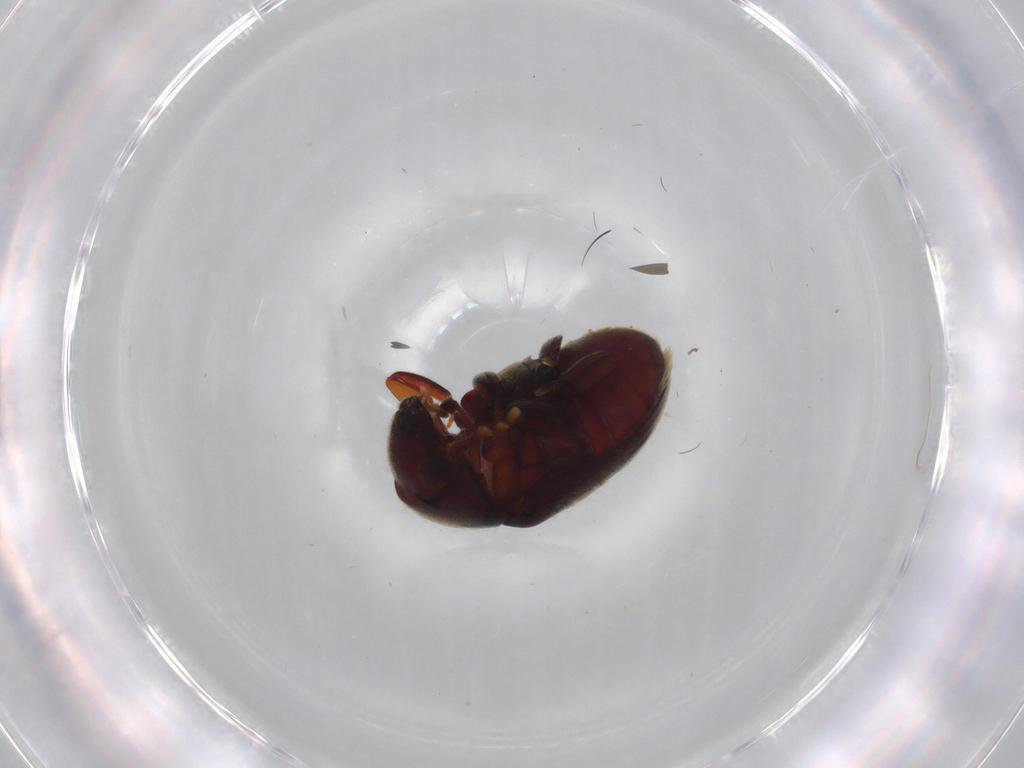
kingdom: Animalia
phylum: Arthropoda
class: Insecta
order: Coleoptera
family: Ptinidae
